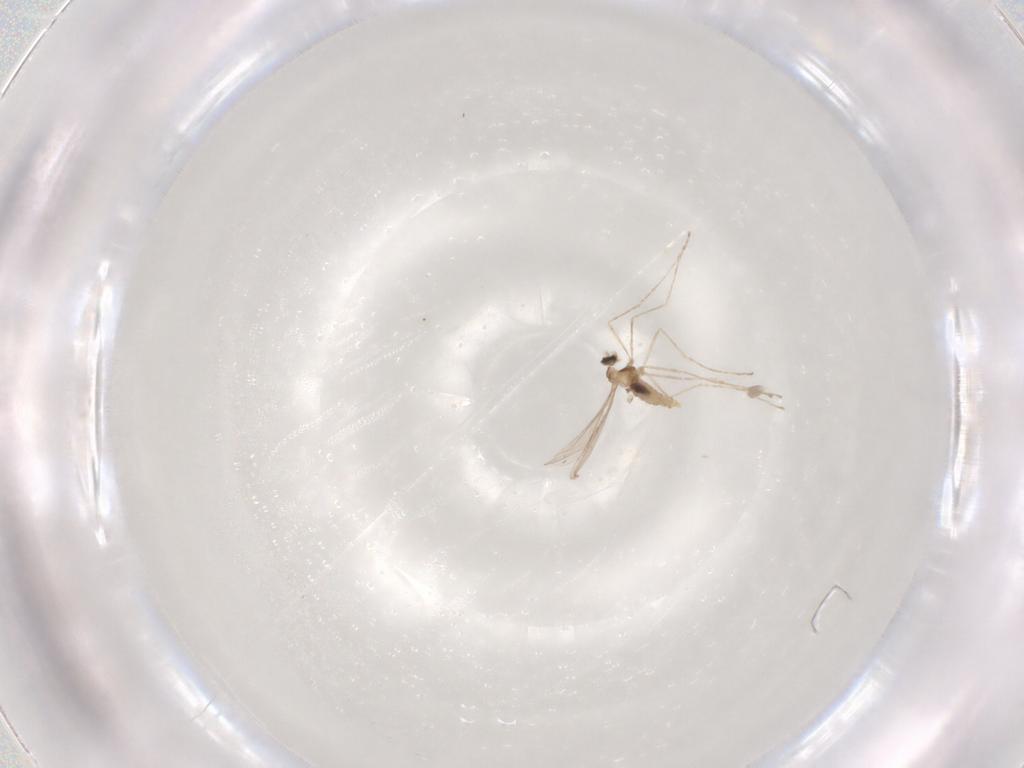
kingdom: Animalia
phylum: Arthropoda
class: Insecta
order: Diptera
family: Sciaridae
